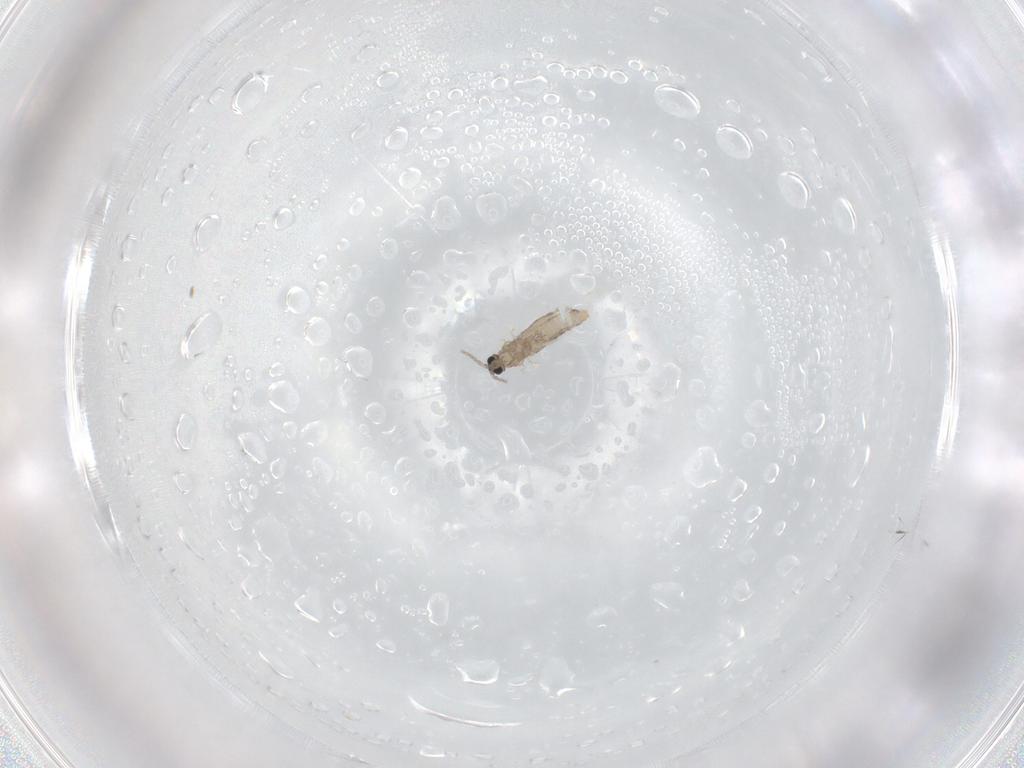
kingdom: Animalia
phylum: Arthropoda
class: Insecta
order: Diptera
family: Cecidomyiidae
